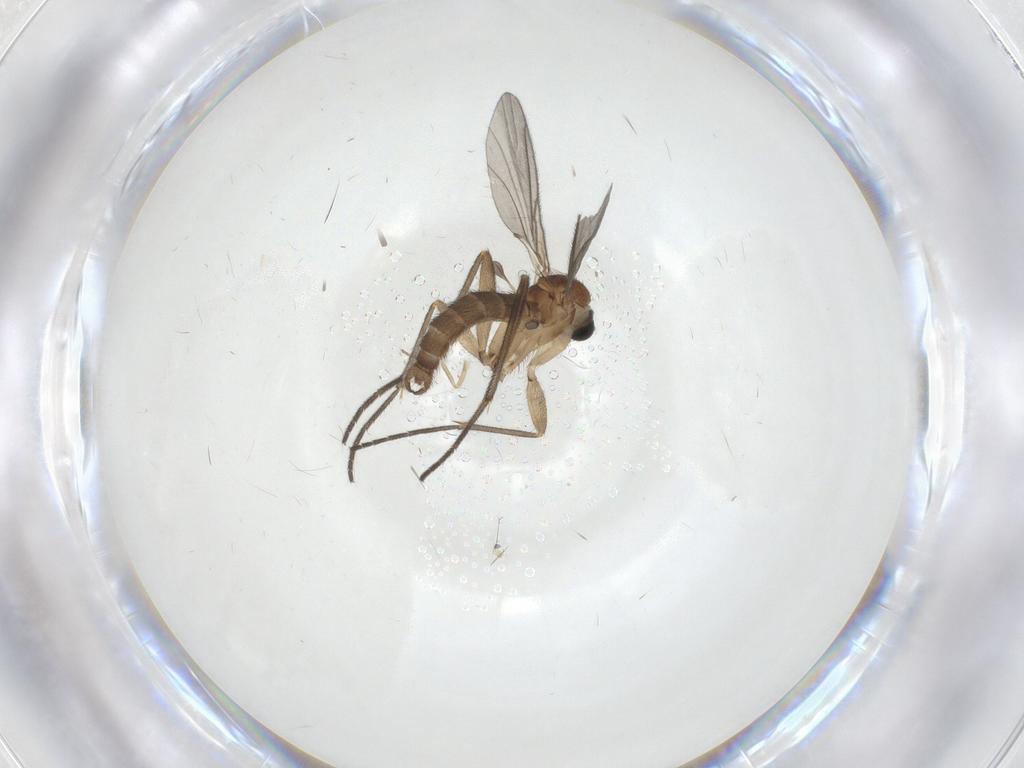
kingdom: Animalia
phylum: Arthropoda
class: Insecta
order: Diptera
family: Sciaridae
